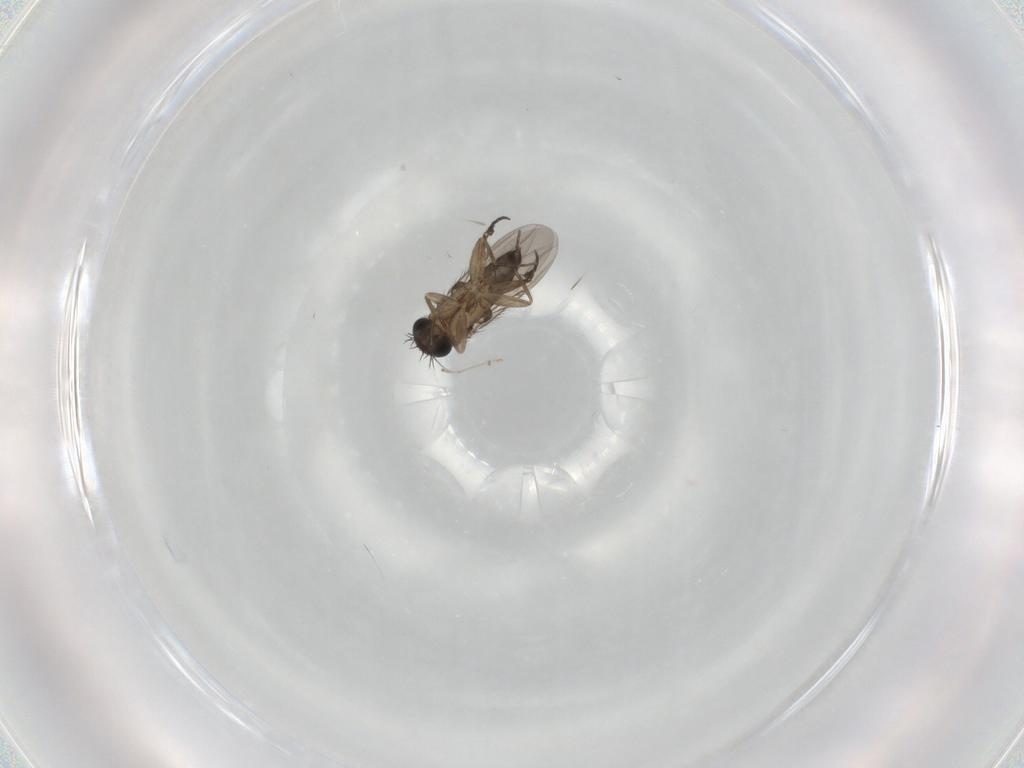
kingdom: Animalia
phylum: Arthropoda
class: Insecta
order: Diptera
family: Phoridae
